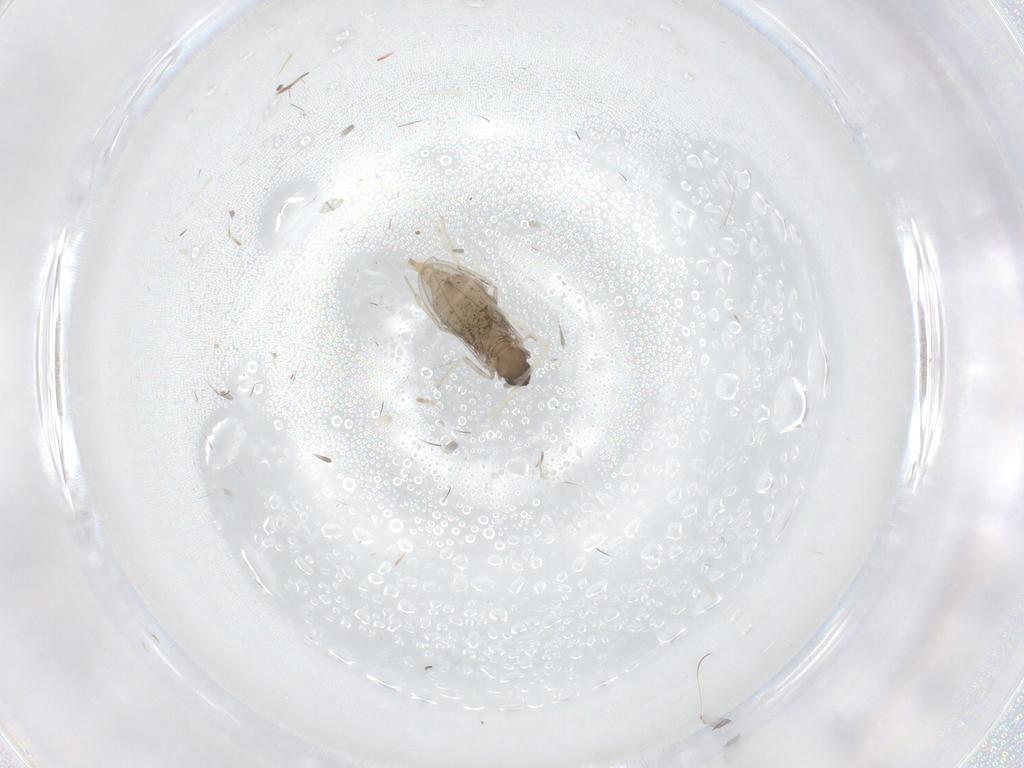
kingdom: Animalia
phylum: Arthropoda
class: Insecta
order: Diptera
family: Cecidomyiidae
